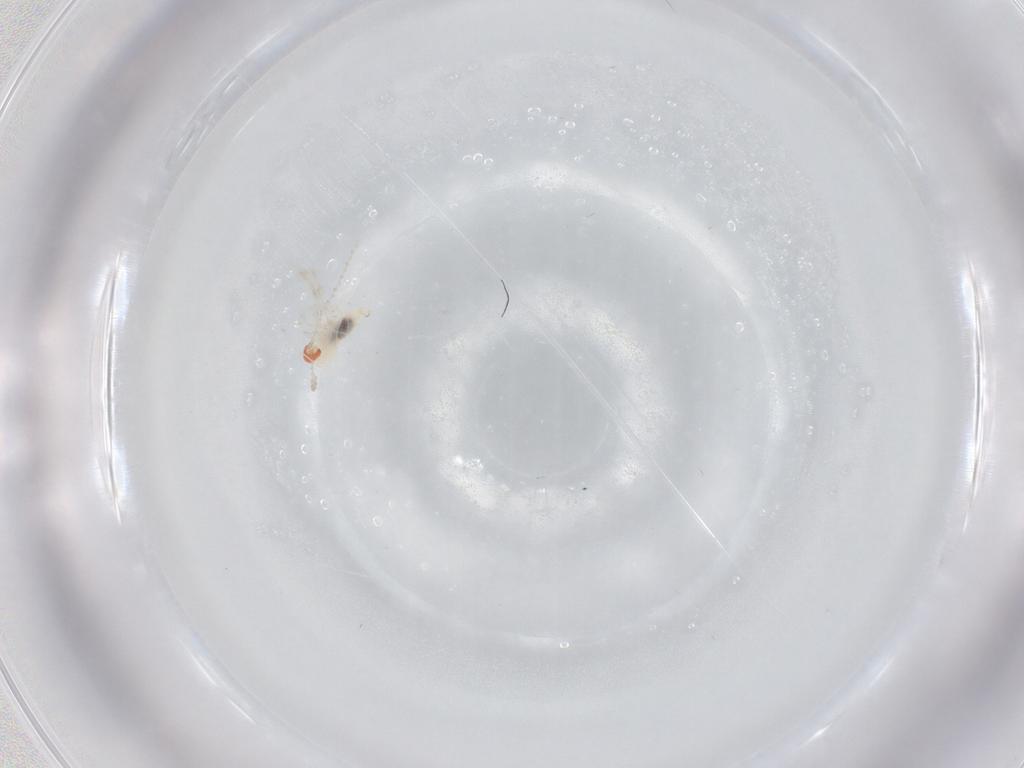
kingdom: Animalia
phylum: Arthropoda
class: Insecta
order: Diptera
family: Cecidomyiidae
